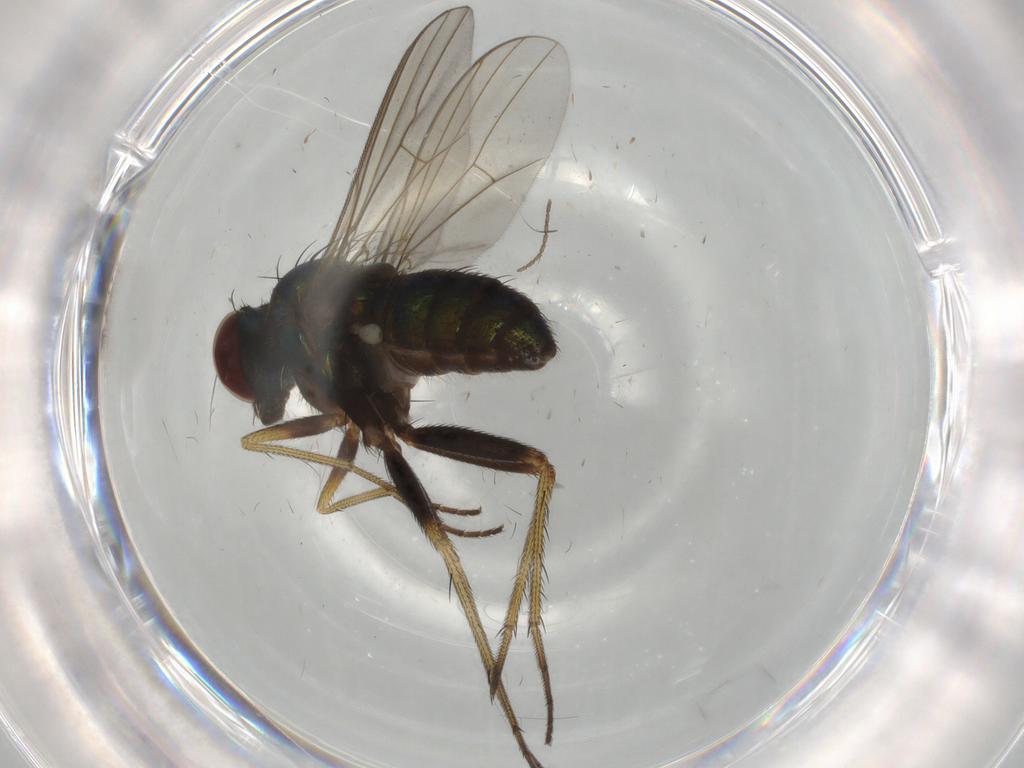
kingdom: Animalia
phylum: Arthropoda
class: Insecta
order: Diptera
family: Dolichopodidae
